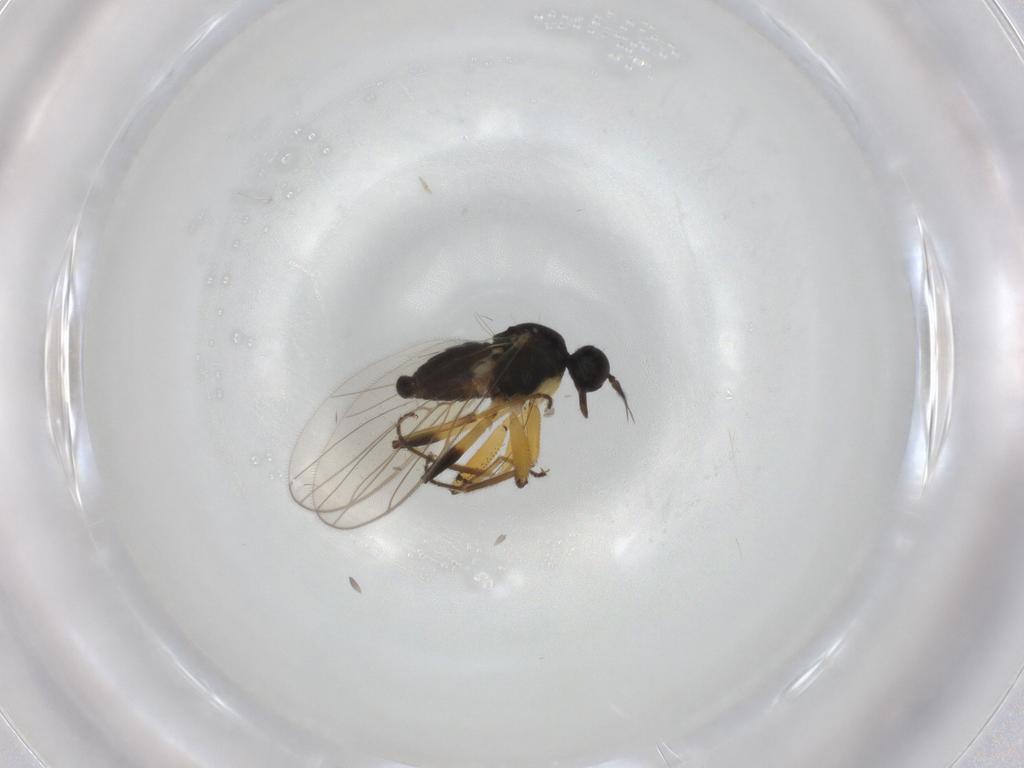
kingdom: Animalia
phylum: Arthropoda
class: Insecta
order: Diptera
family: Hybotidae
